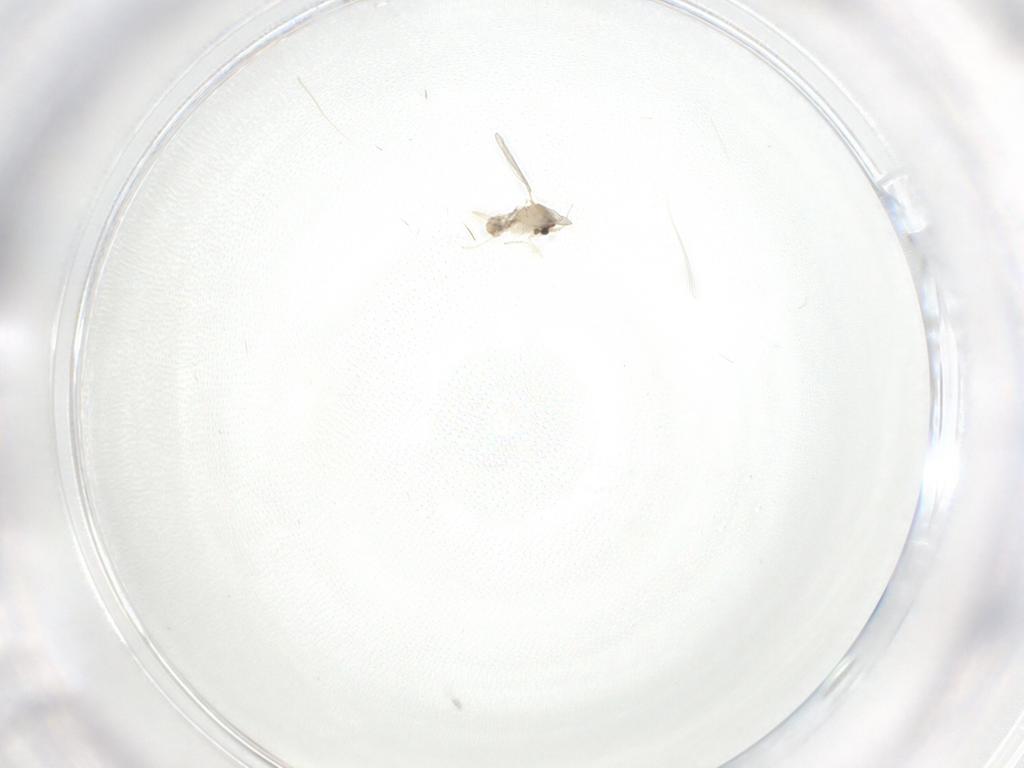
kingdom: Animalia
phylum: Arthropoda
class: Insecta
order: Diptera
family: Cecidomyiidae
